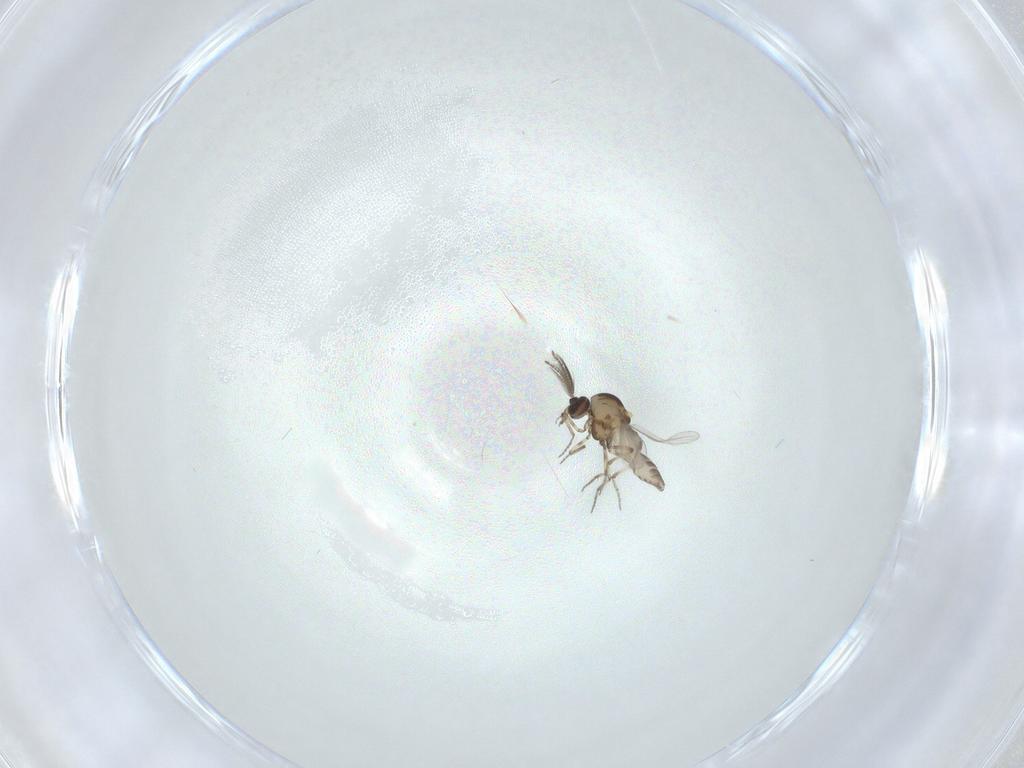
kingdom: Animalia
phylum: Arthropoda
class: Insecta
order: Diptera
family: Ceratopogonidae
